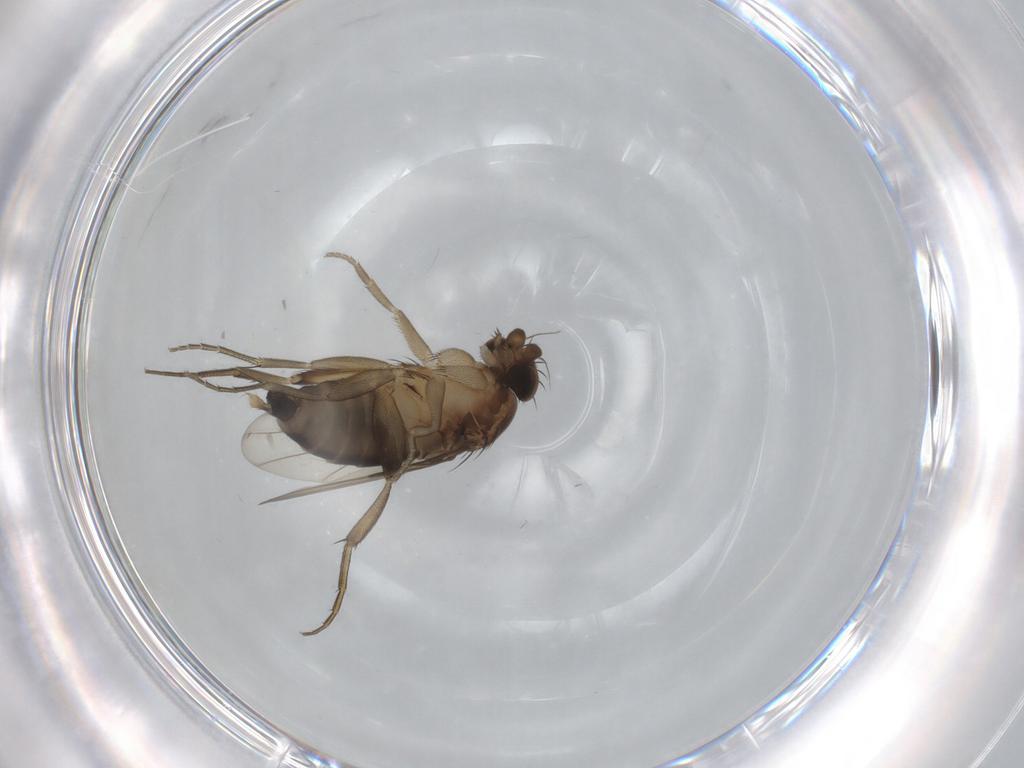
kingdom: Animalia
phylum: Arthropoda
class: Insecta
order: Diptera
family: Phoridae
